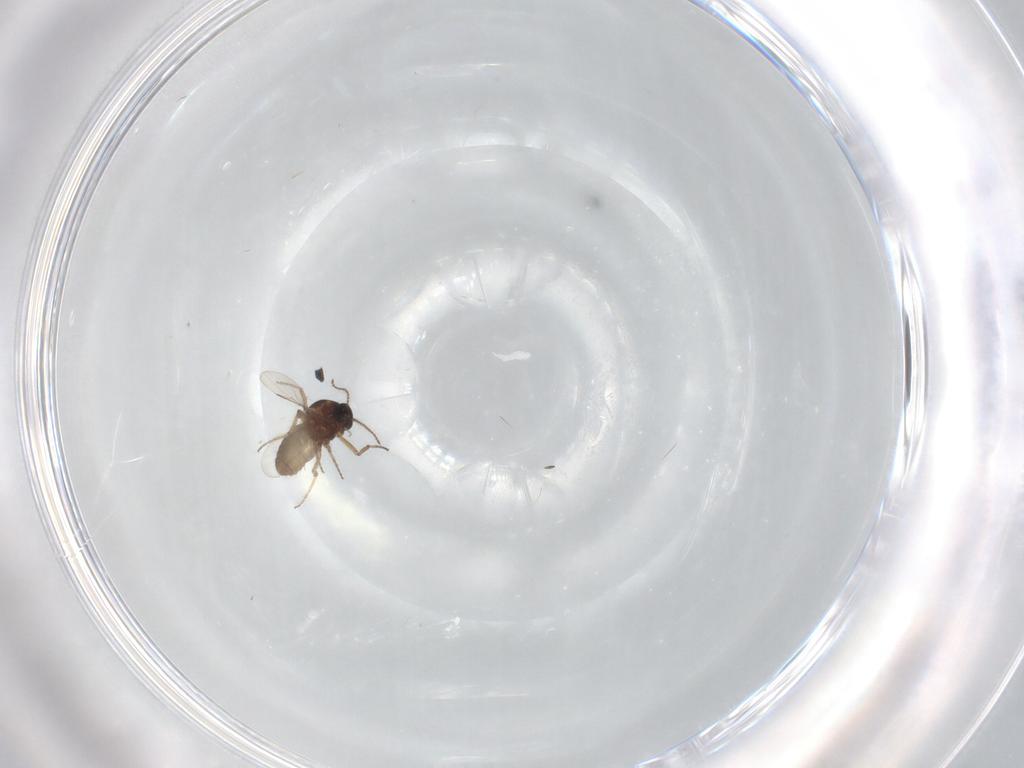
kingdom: Animalia
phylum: Arthropoda
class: Insecta
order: Diptera
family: Ceratopogonidae
